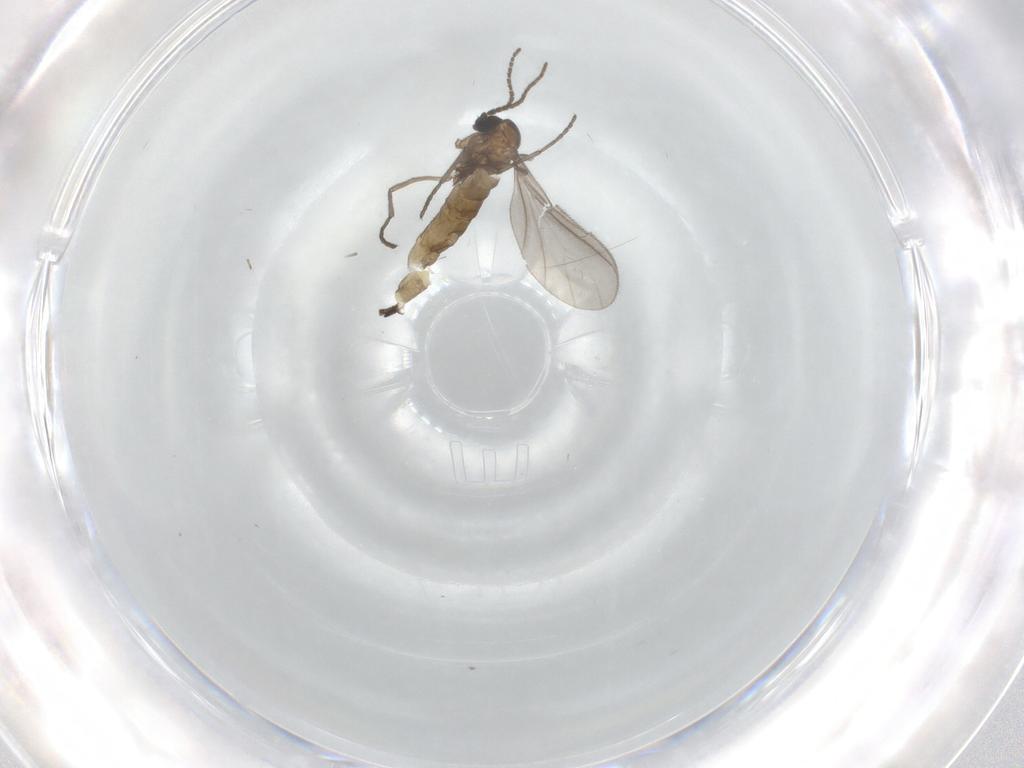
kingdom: Animalia
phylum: Arthropoda
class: Insecta
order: Diptera
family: Sciaridae
